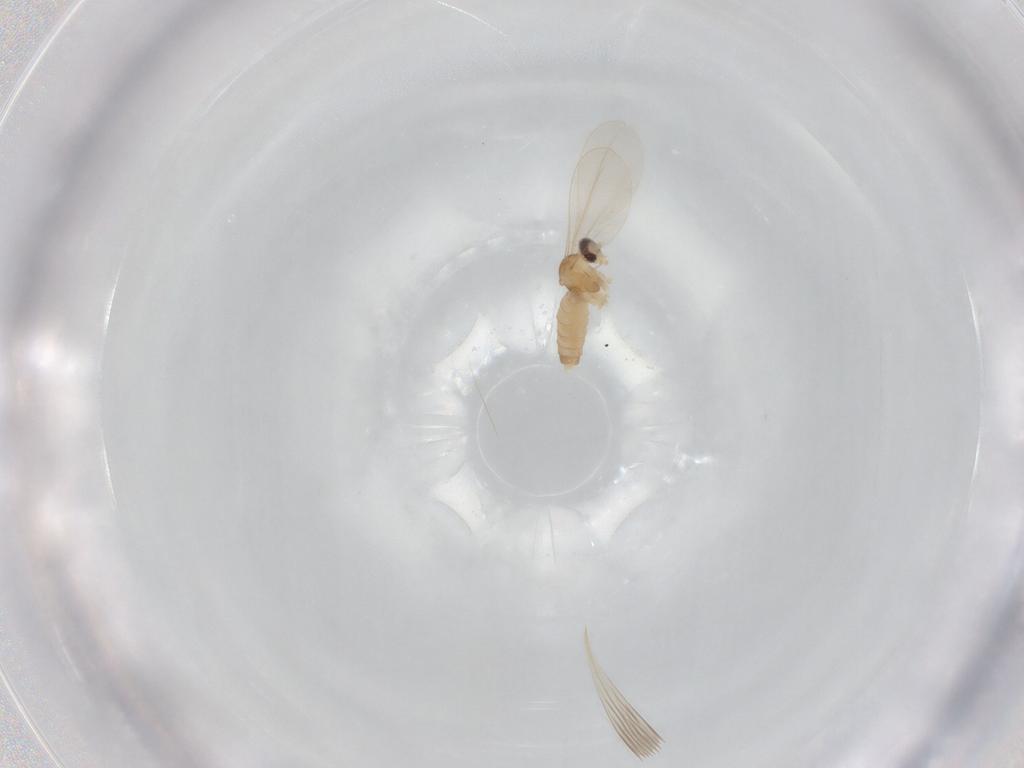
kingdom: Animalia
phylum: Arthropoda
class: Insecta
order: Diptera
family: Cecidomyiidae
